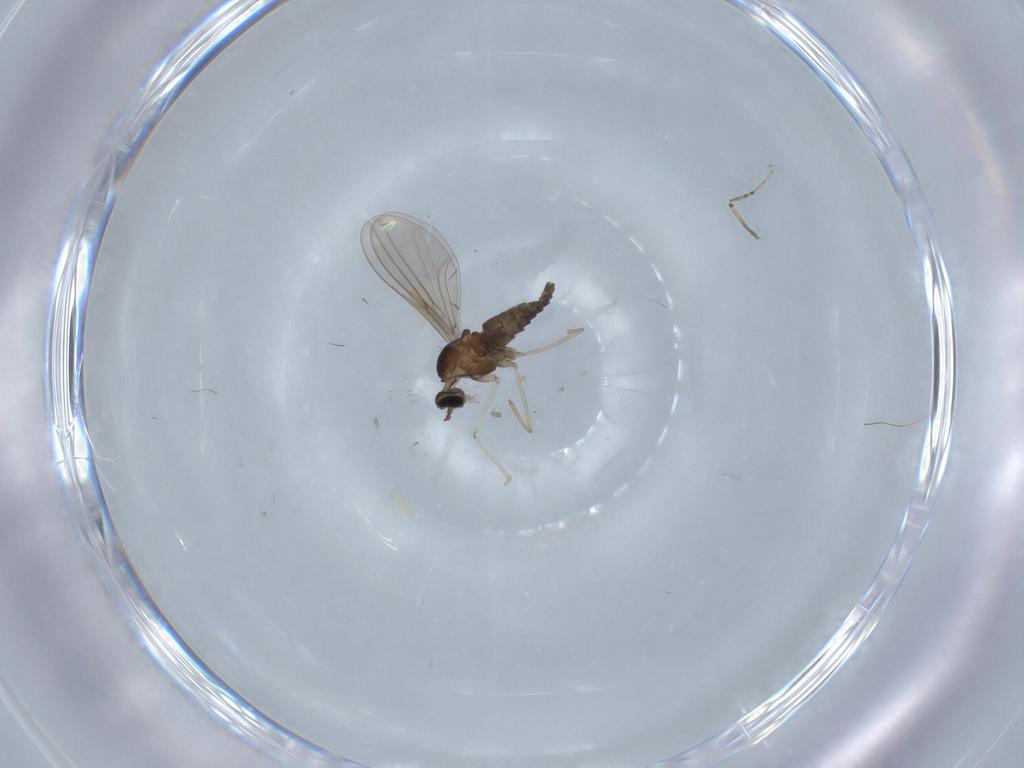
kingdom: Animalia
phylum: Arthropoda
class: Insecta
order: Diptera
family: Cecidomyiidae
